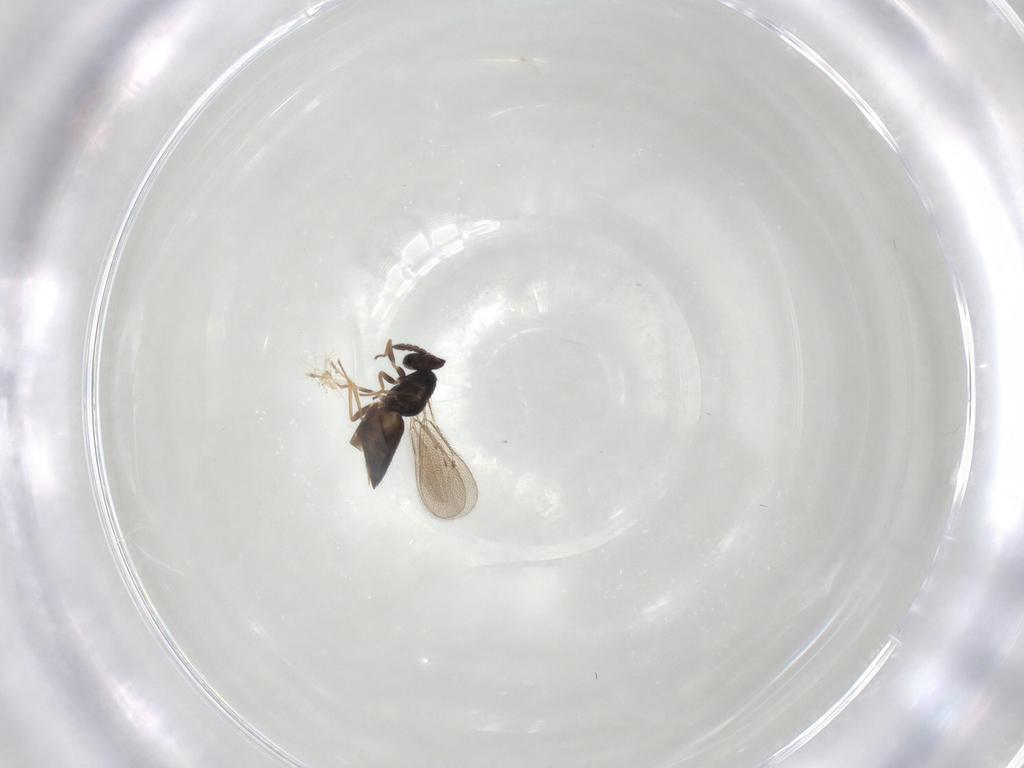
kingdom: Animalia
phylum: Arthropoda
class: Insecta
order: Hymenoptera
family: Eulophidae
